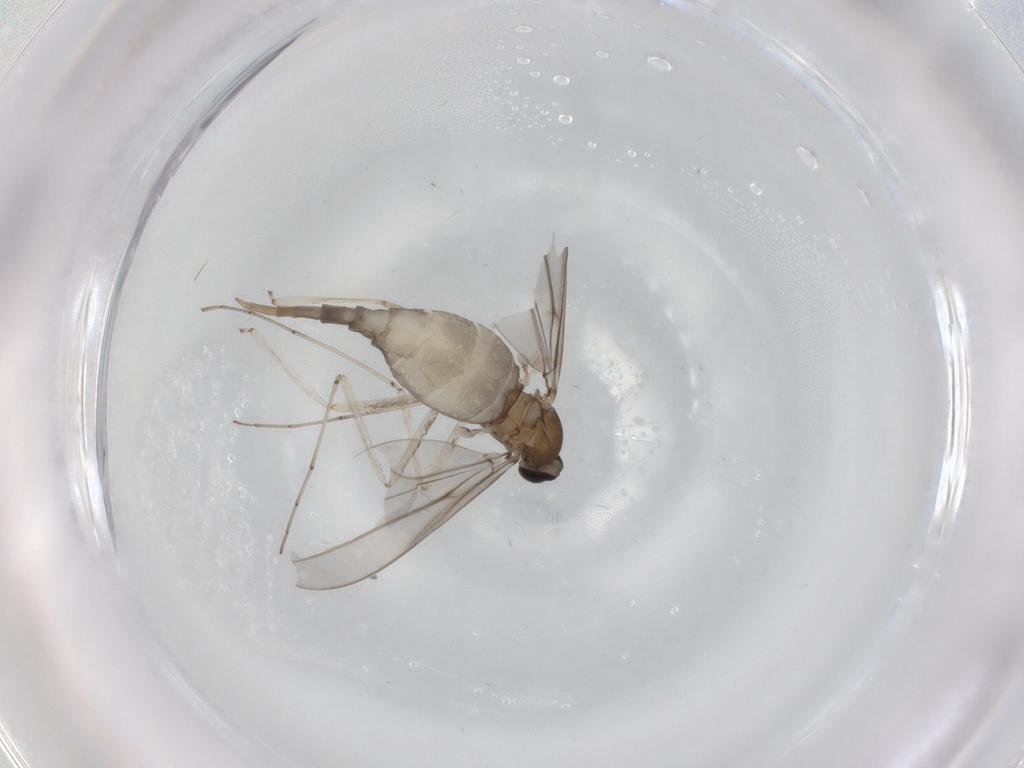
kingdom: Animalia
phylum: Arthropoda
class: Insecta
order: Diptera
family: Cecidomyiidae
